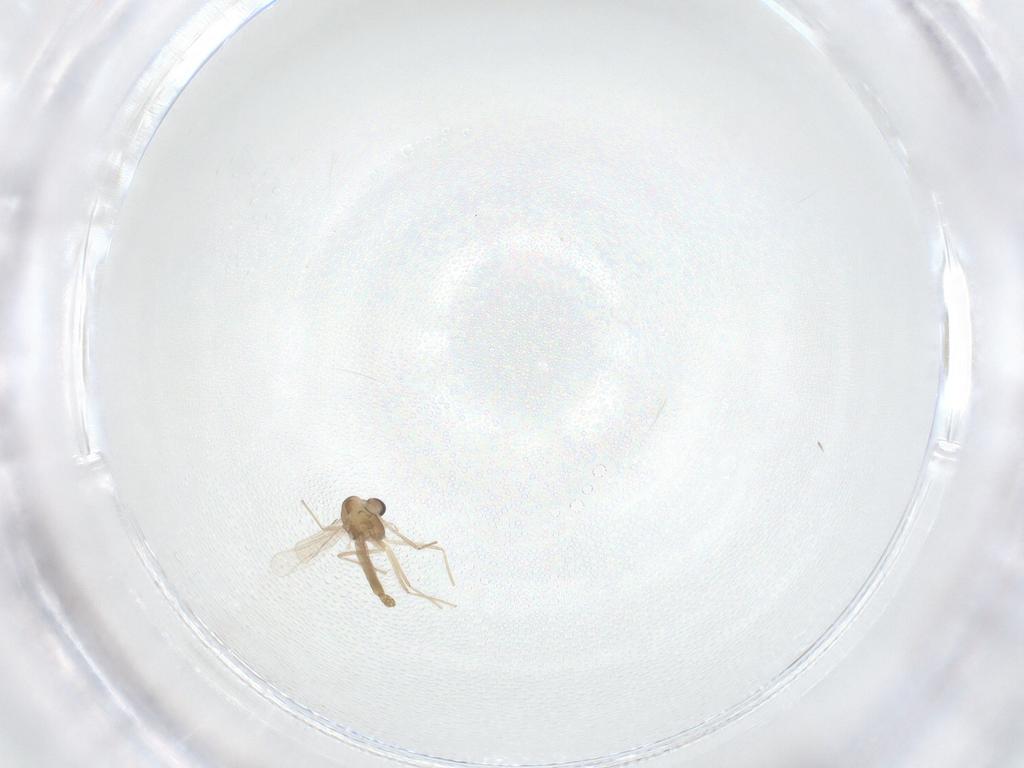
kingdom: Animalia
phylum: Arthropoda
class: Insecta
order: Diptera
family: Chironomidae
